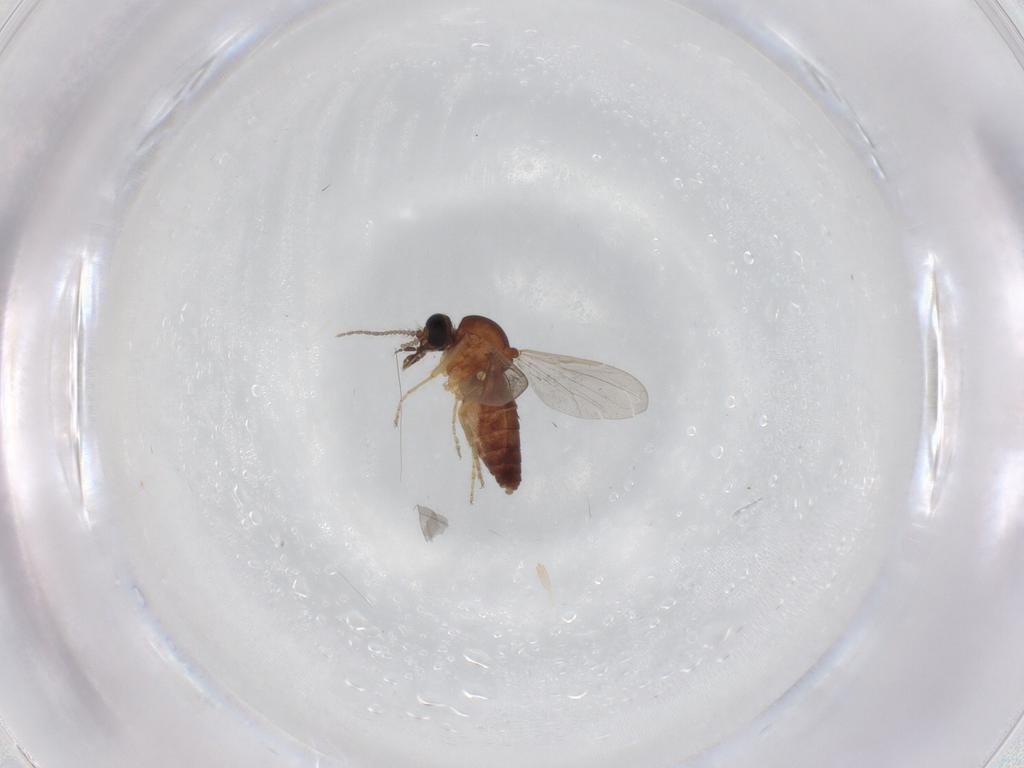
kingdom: Animalia
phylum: Arthropoda
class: Insecta
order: Diptera
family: Ceratopogonidae
